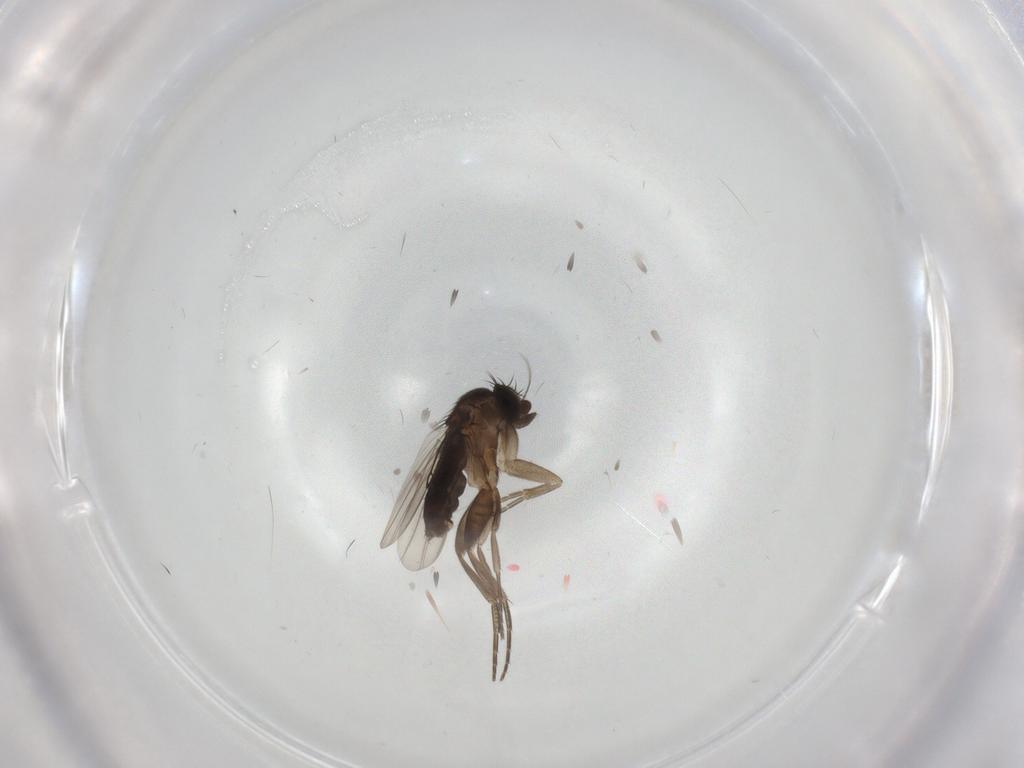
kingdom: Animalia
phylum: Arthropoda
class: Insecta
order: Diptera
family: Phoridae
